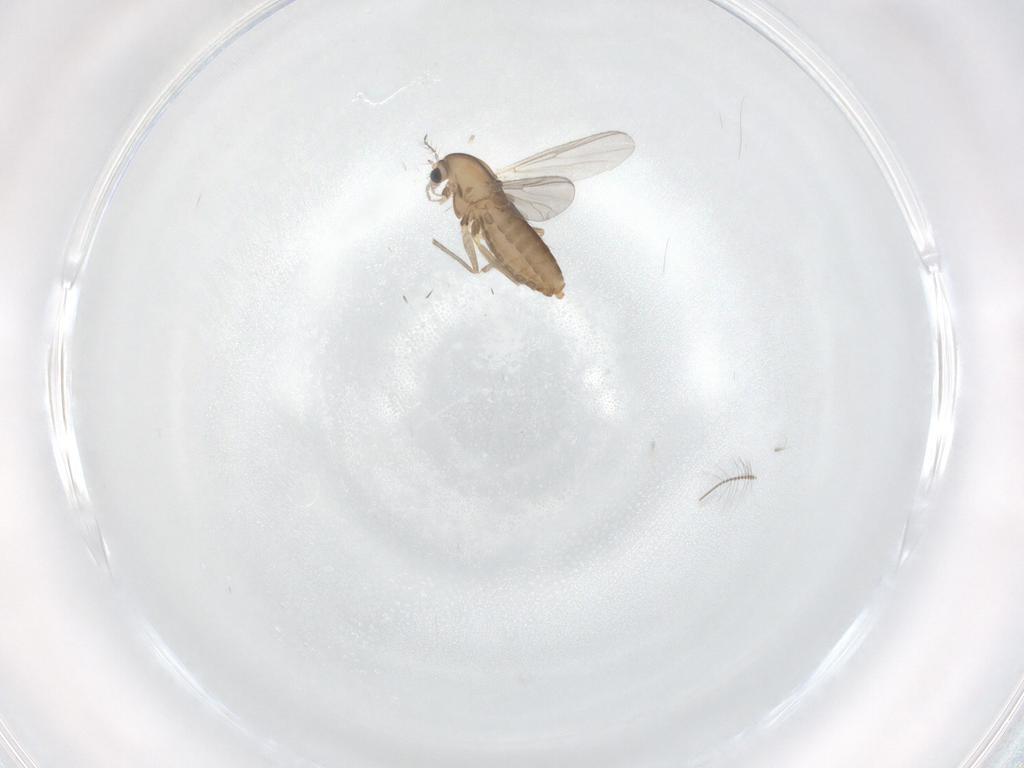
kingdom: Animalia
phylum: Arthropoda
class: Insecta
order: Diptera
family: Chironomidae
